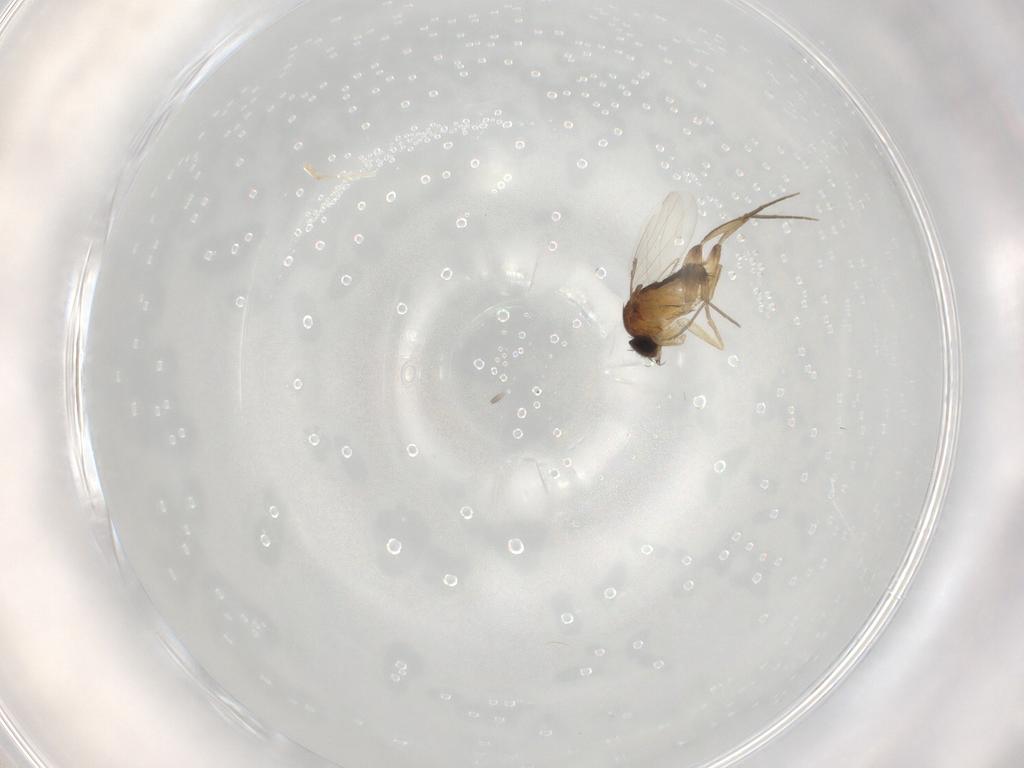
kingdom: Animalia
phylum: Arthropoda
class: Insecta
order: Diptera
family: Phoridae
